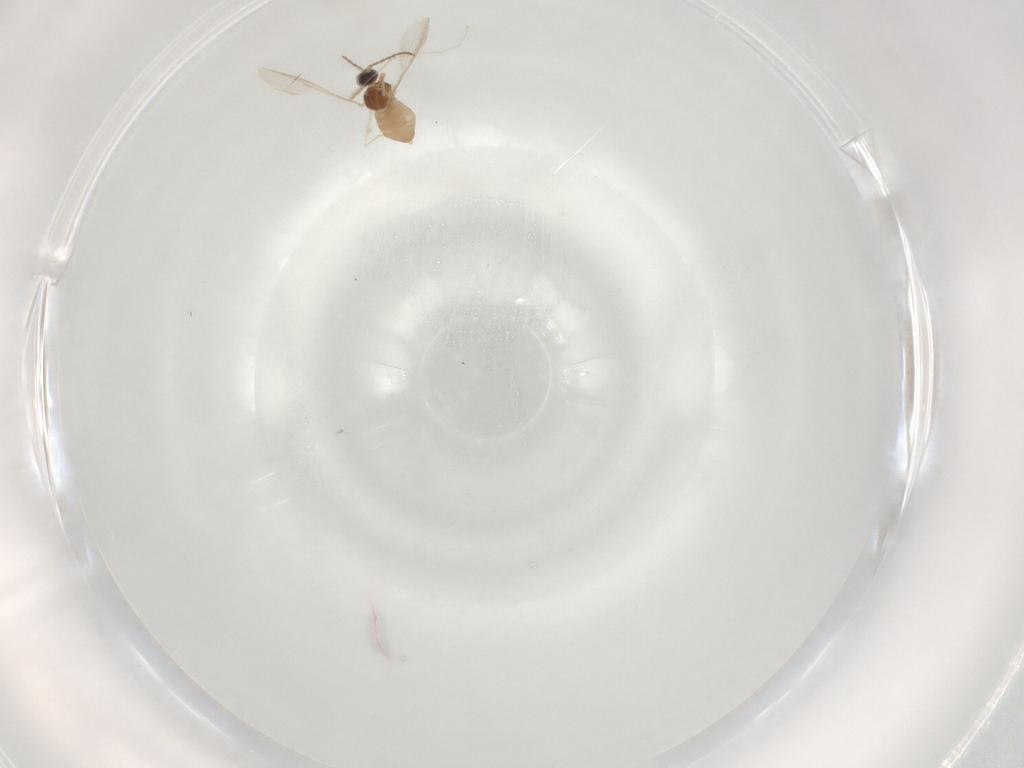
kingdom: Animalia
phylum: Arthropoda
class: Insecta
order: Diptera
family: Cecidomyiidae
